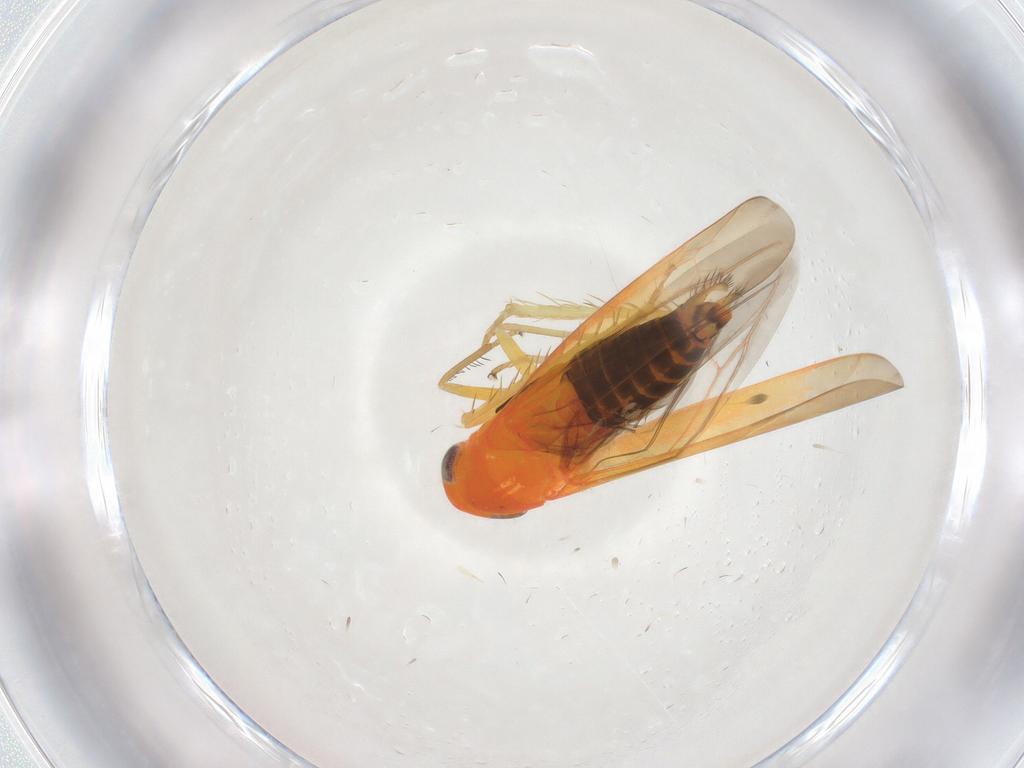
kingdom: Animalia
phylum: Arthropoda
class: Insecta
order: Hemiptera
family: Cicadellidae
